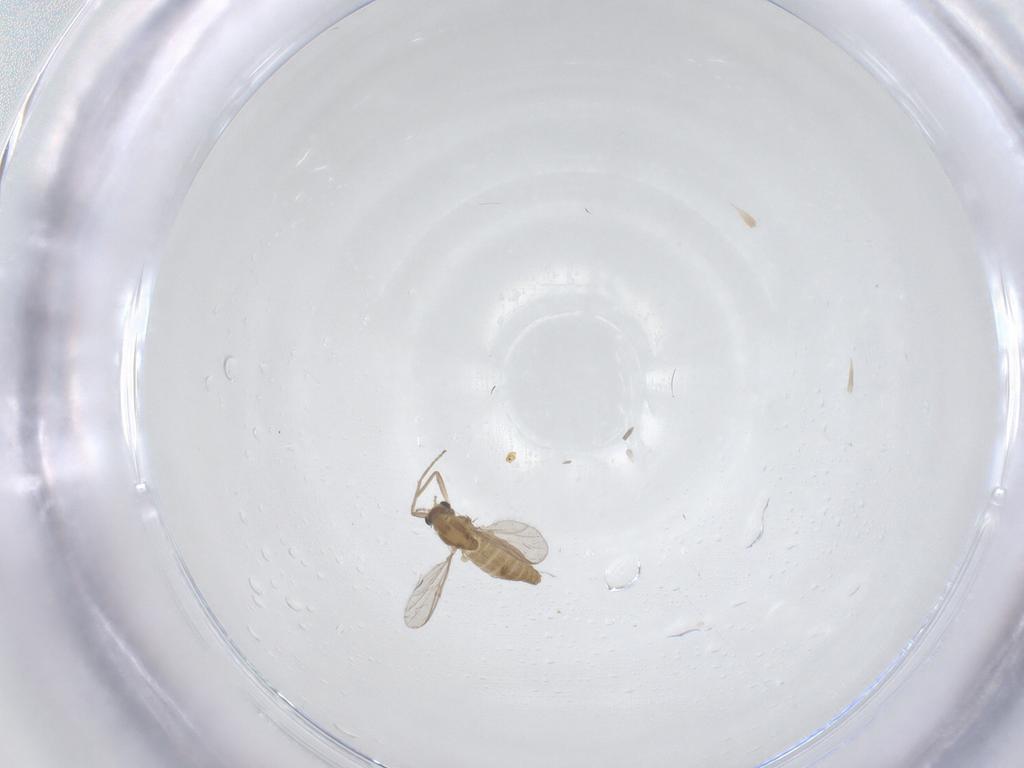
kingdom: Animalia
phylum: Arthropoda
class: Insecta
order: Diptera
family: Chironomidae
